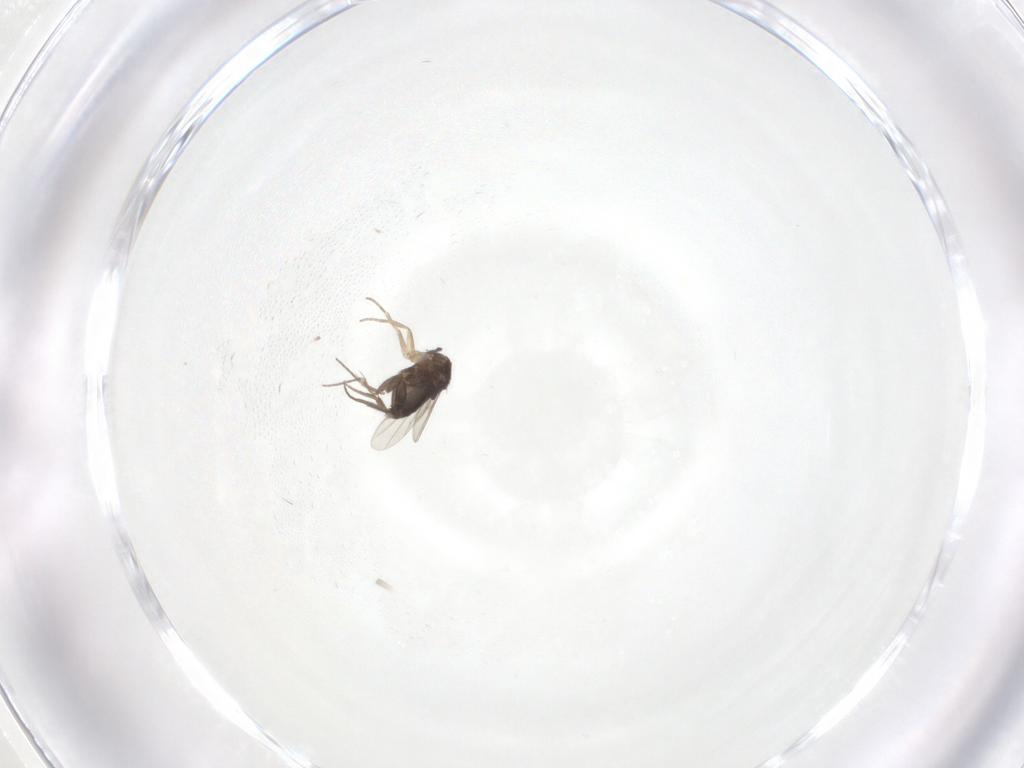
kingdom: Animalia
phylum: Arthropoda
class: Insecta
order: Diptera
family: Phoridae
